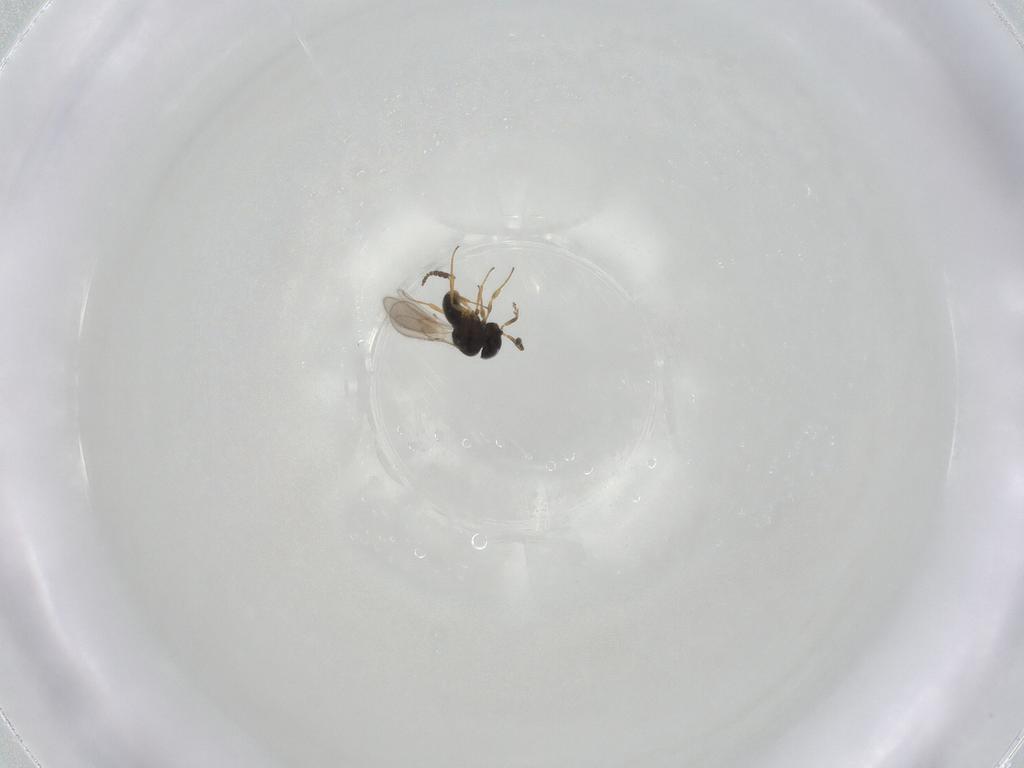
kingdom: Animalia
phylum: Arthropoda
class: Insecta
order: Hymenoptera
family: Scelionidae
